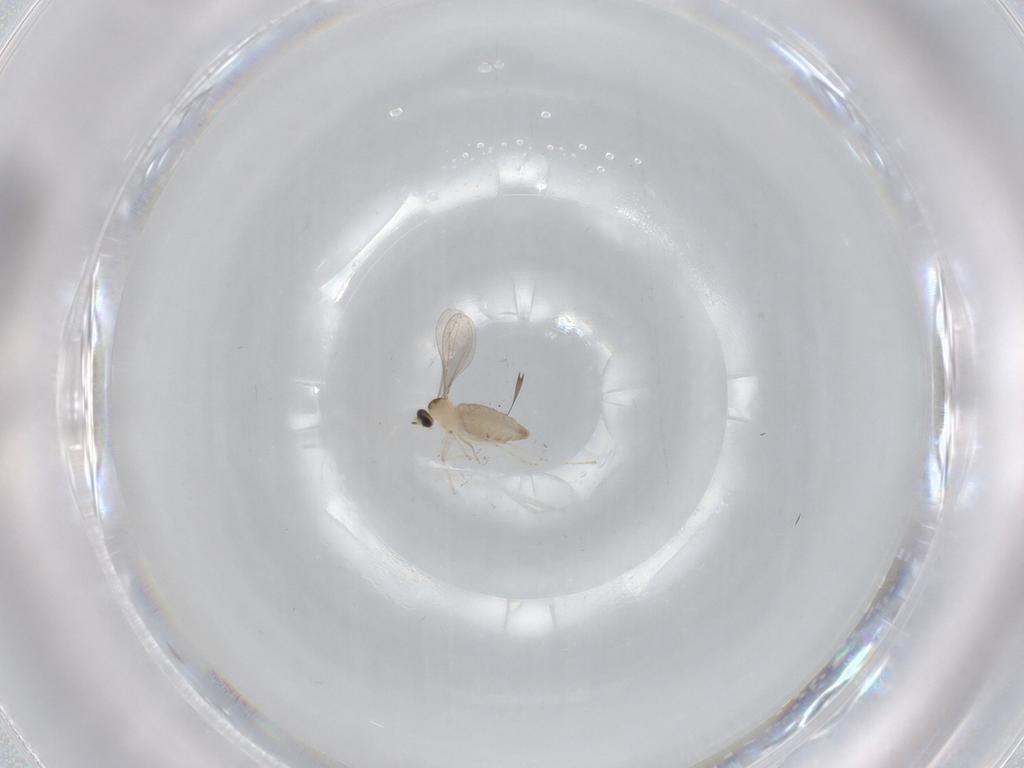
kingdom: Animalia
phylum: Arthropoda
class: Insecta
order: Diptera
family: Cecidomyiidae
